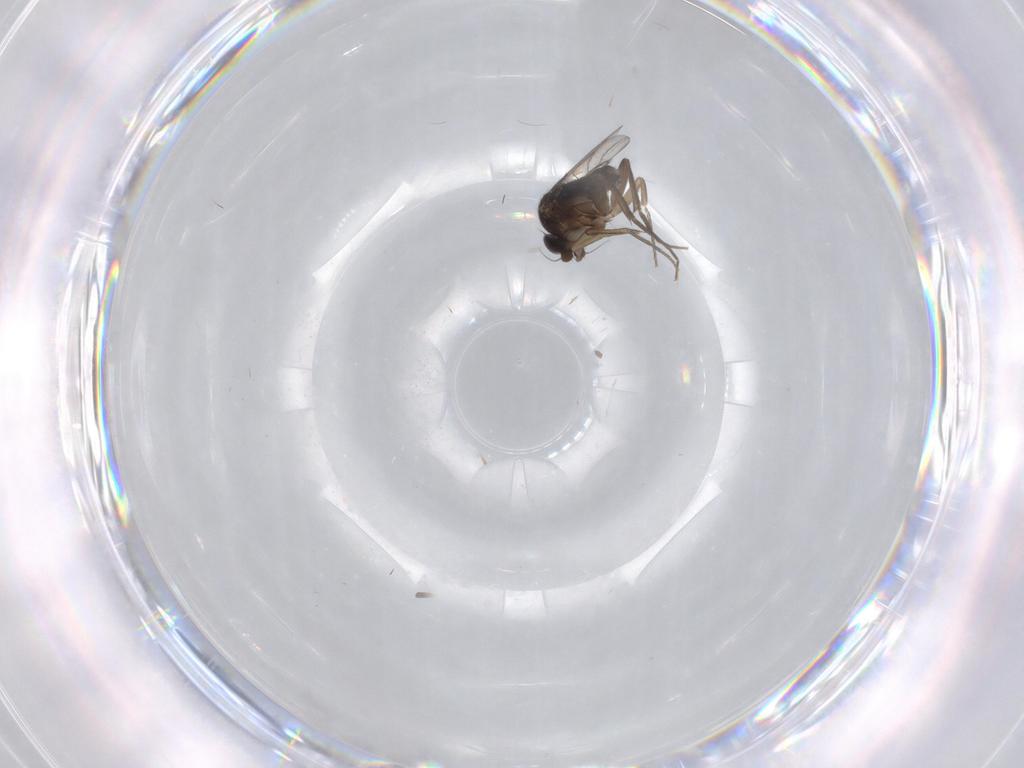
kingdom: Animalia
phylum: Arthropoda
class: Insecta
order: Diptera
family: Phoridae
